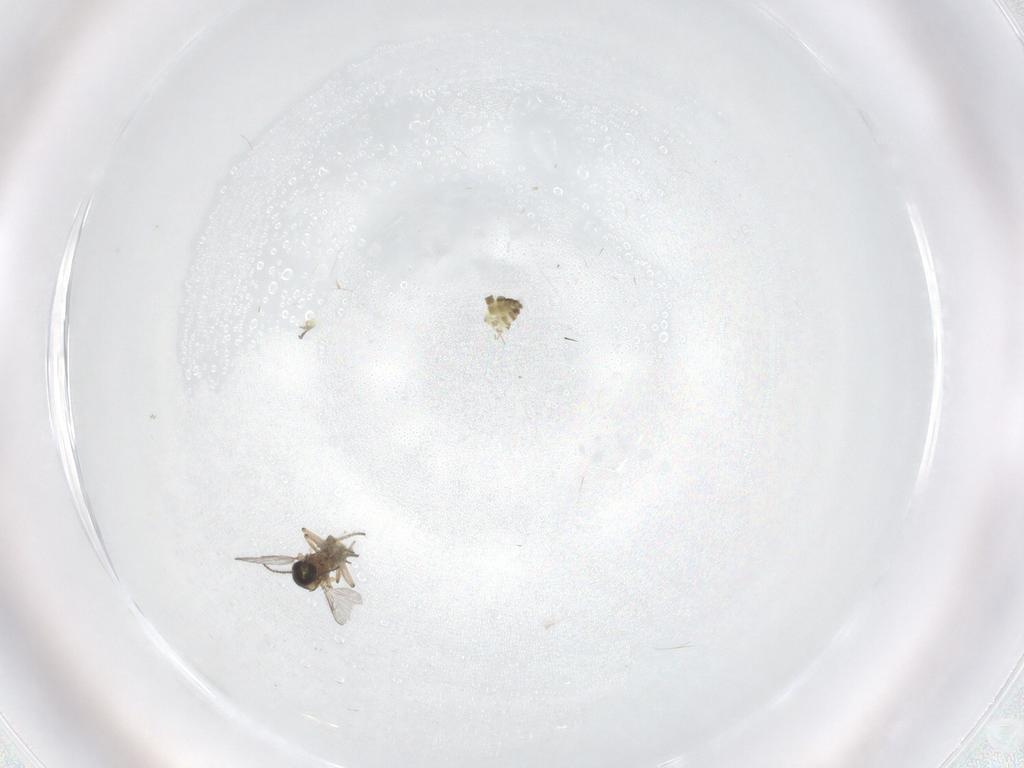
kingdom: Animalia
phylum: Arthropoda
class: Insecta
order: Diptera
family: Ceratopogonidae
